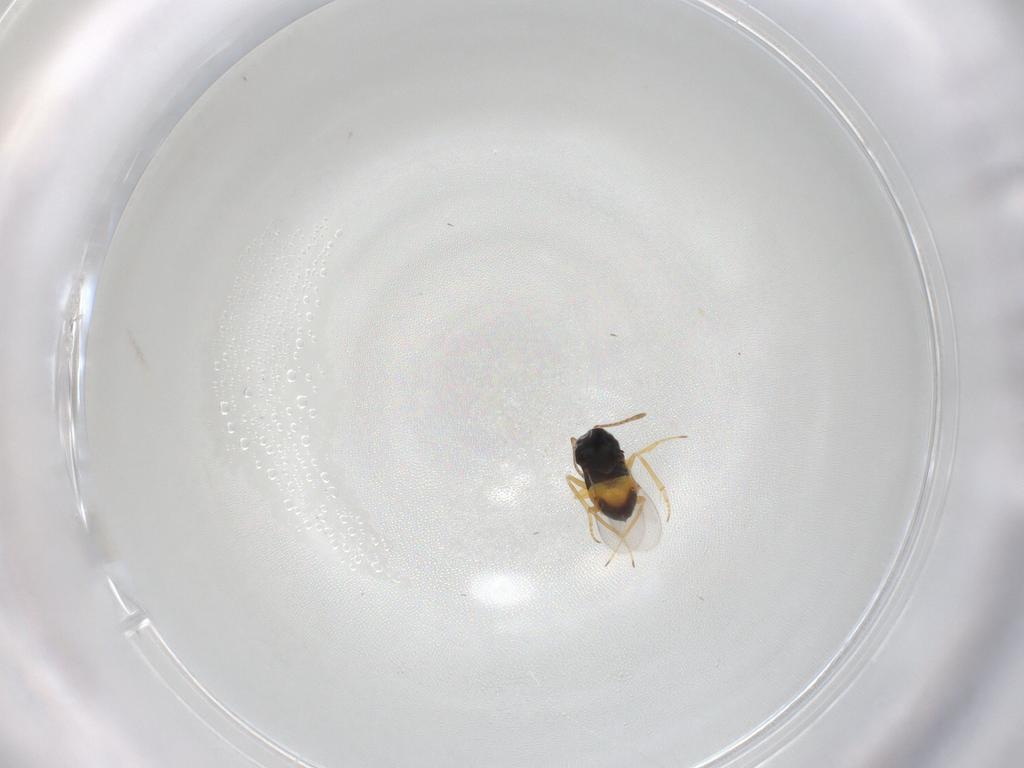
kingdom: Animalia
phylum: Arthropoda
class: Insecta
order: Hymenoptera
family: Encyrtidae
